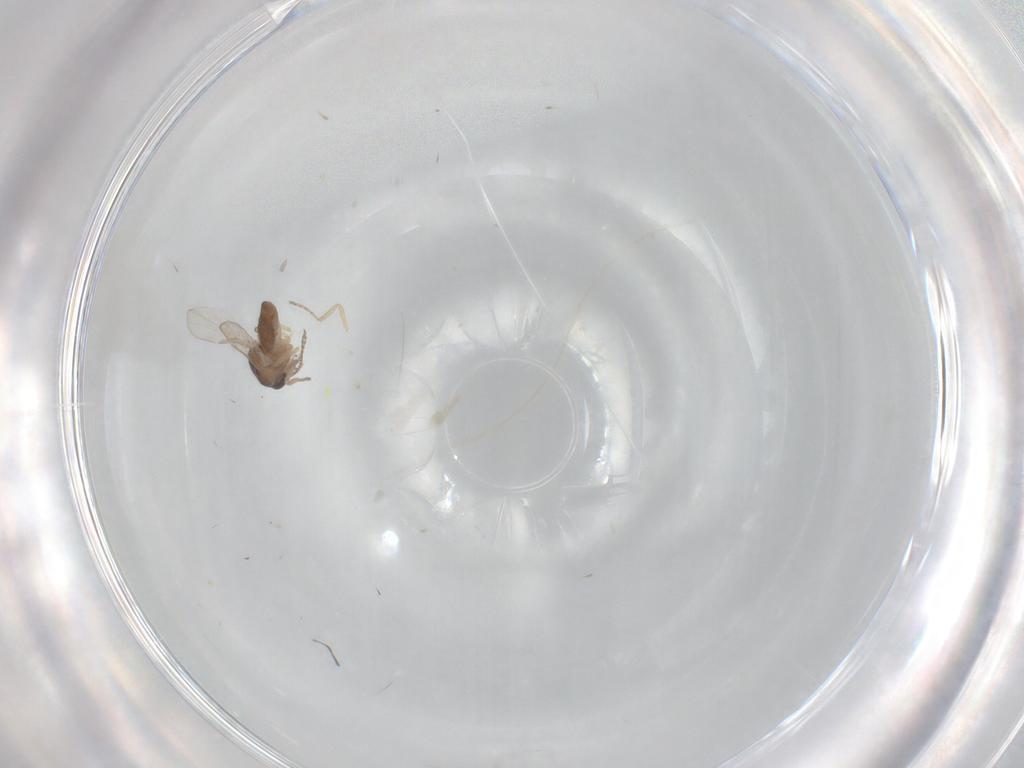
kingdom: Animalia
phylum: Arthropoda
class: Insecta
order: Diptera
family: Ceratopogonidae
